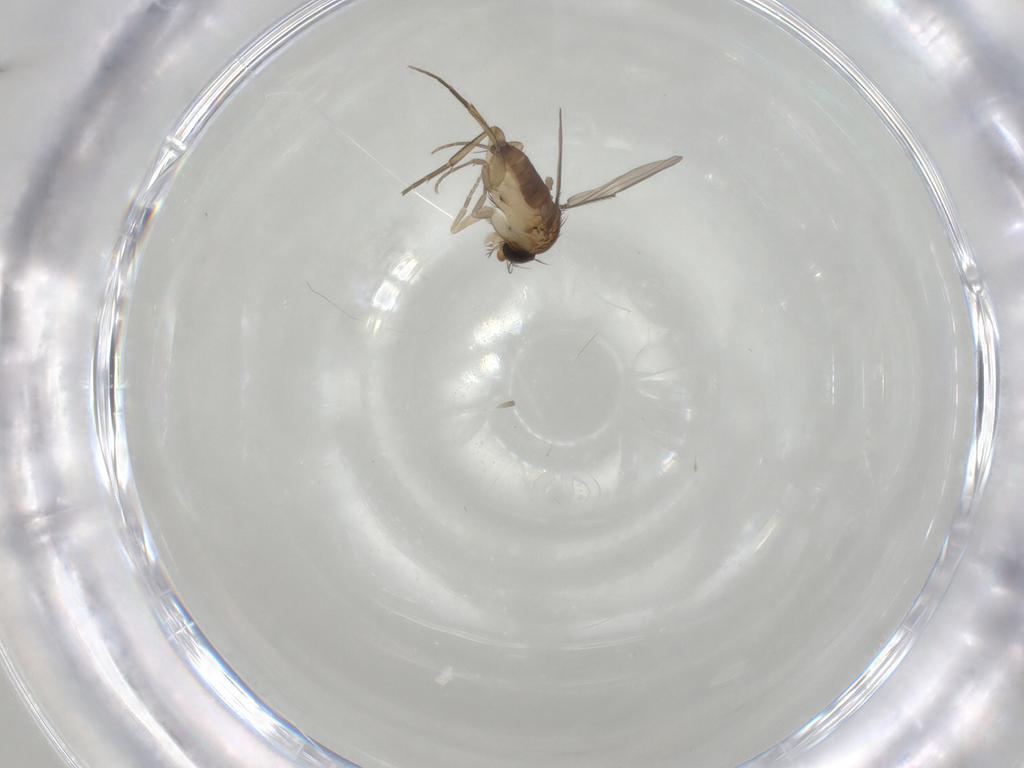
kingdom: Animalia
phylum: Arthropoda
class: Insecta
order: Diptera
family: Phoridae
